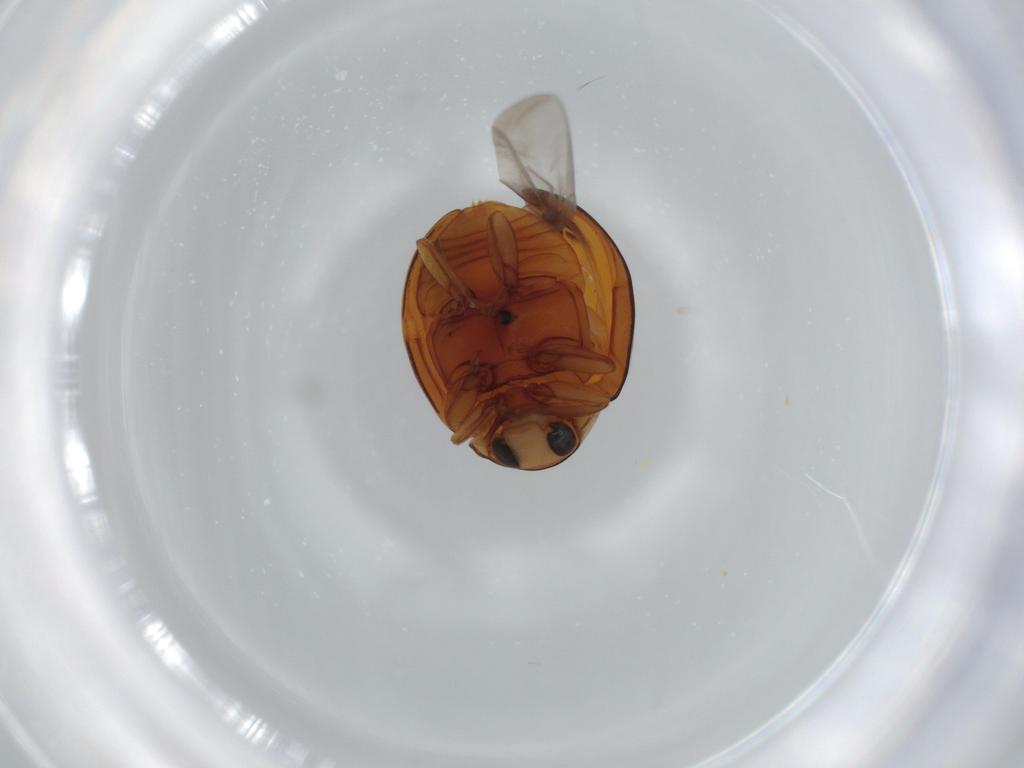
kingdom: Animalia
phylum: Arthropoda
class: Insecta
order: Coleoptera
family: Coccinellidae
